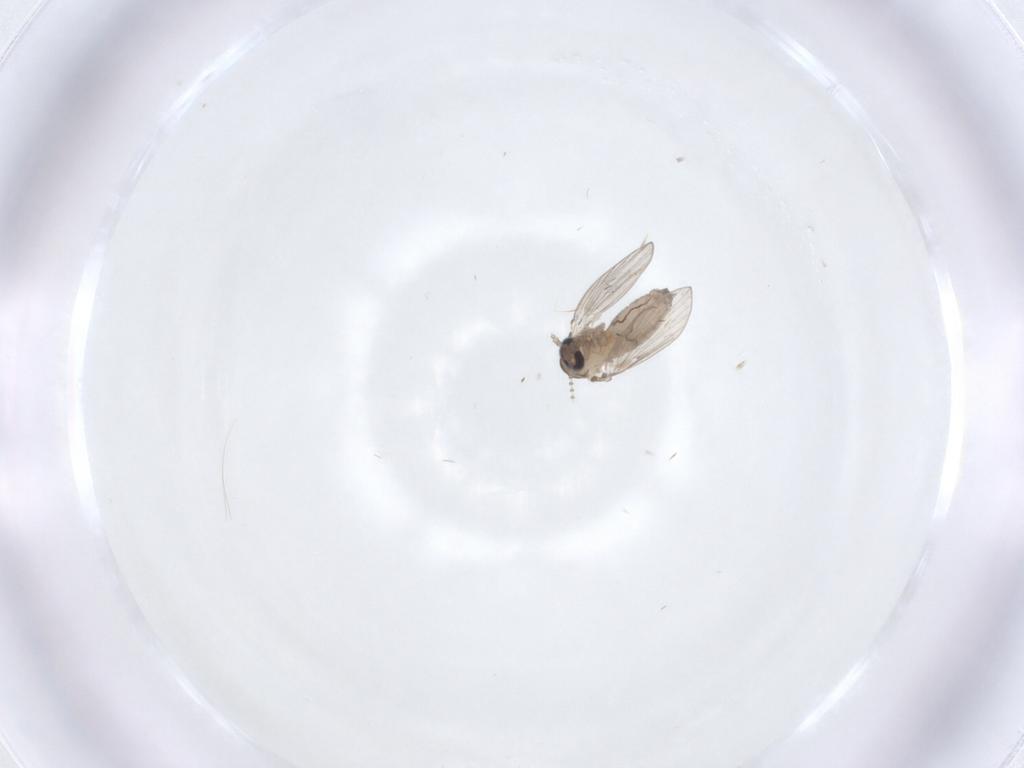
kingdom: Animalia
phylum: Arthropoda
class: Insecta
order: Diptera
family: Psychodidae
